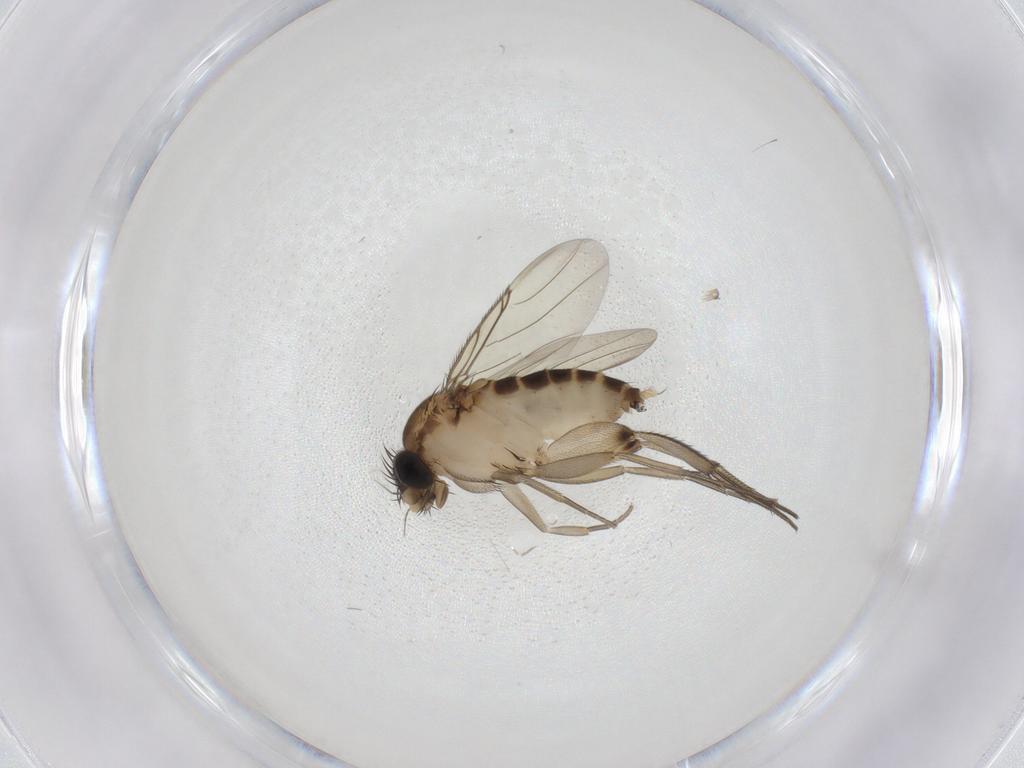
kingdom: Animalia
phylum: Arthropoda
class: Insecta
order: Diptera
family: Phoridae
